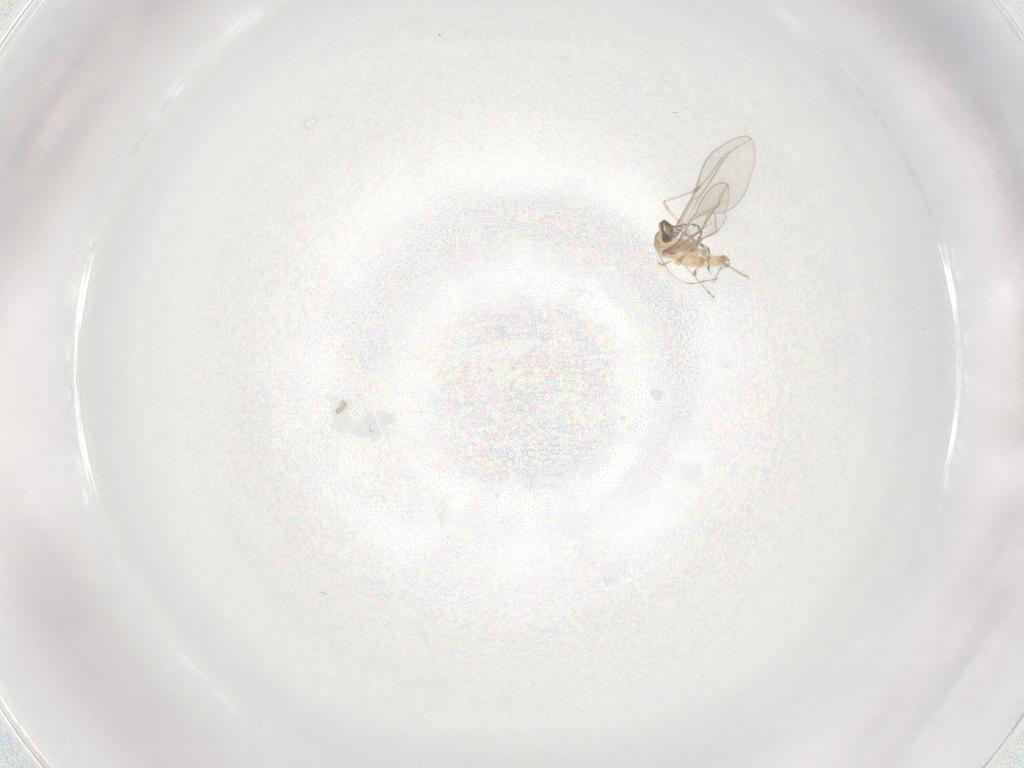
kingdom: Animalia
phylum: Arthropoda
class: Insecta
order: Diptera
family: Cecidomyiidae
